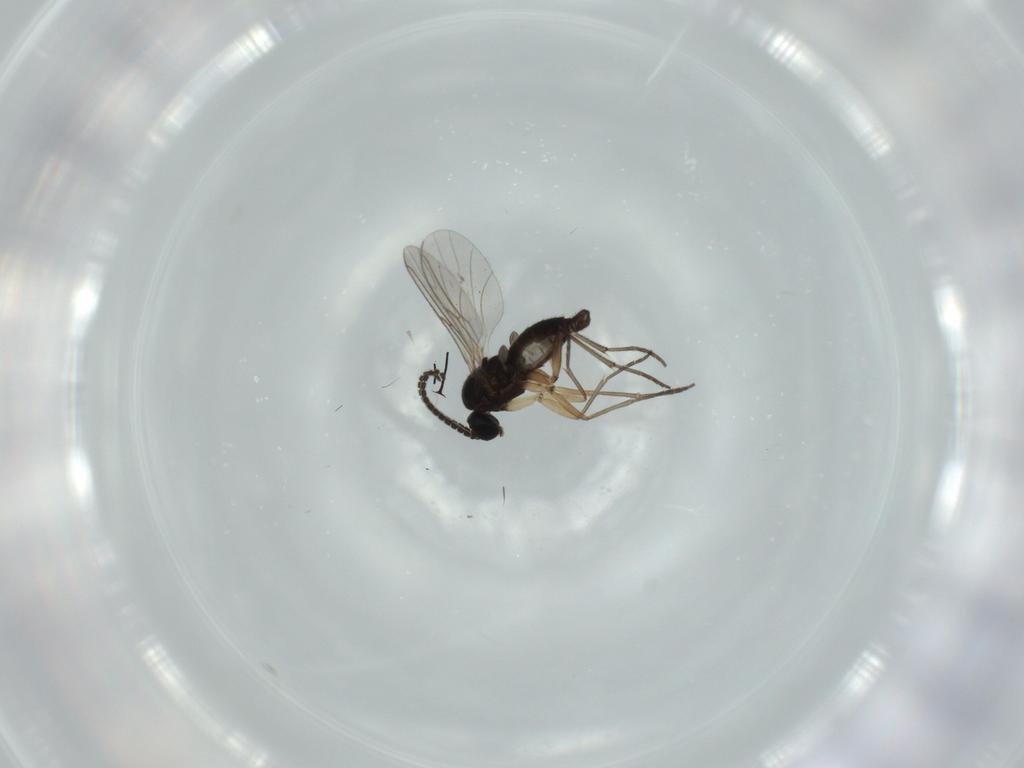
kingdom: Animalia
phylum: Arthropoda
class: Insecta
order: Diptera
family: Sciaridae
